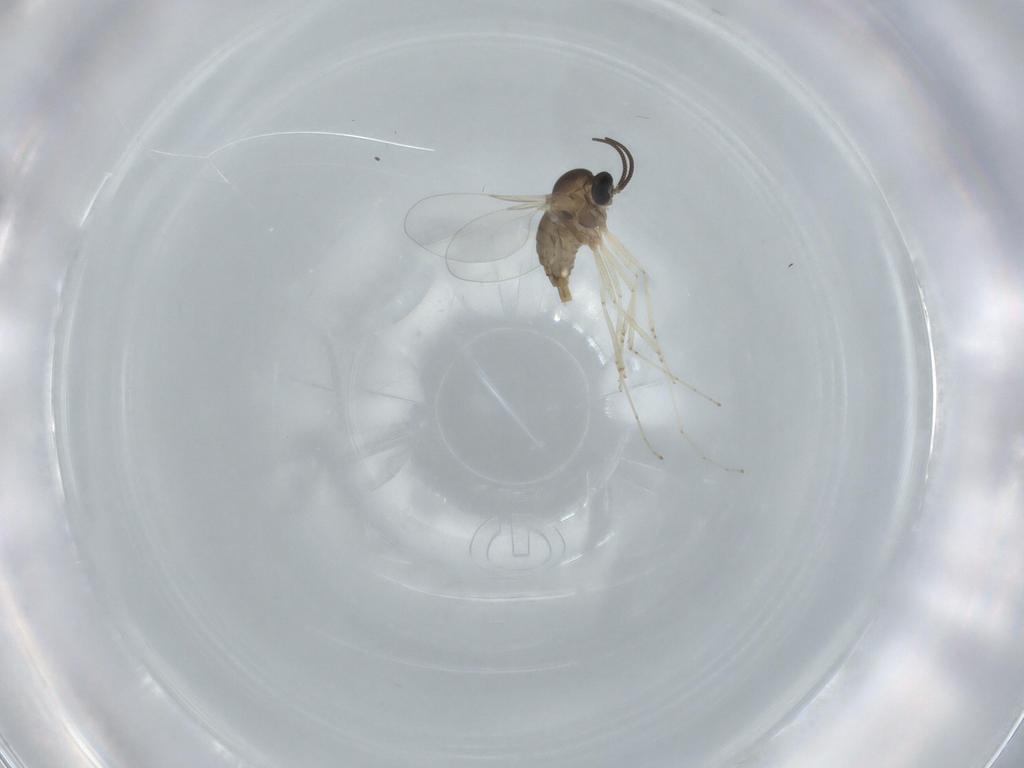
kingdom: Animalia
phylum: Arthropoda
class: Insecta
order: Diptera
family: Cecidomyiidae
